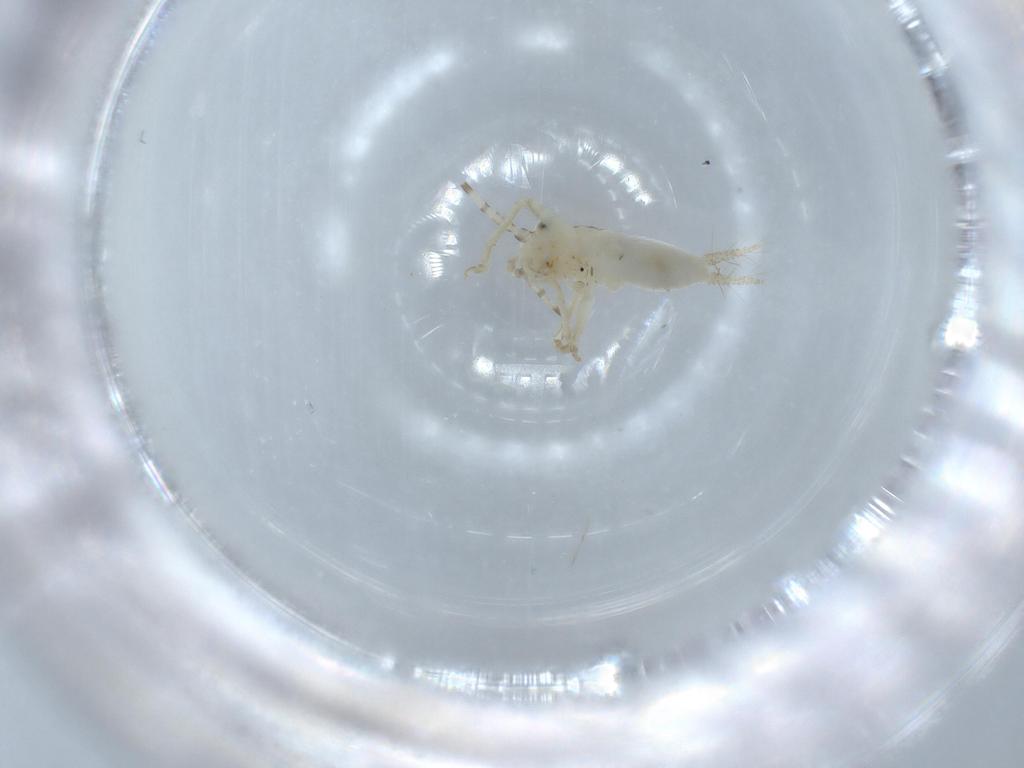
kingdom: Animalia
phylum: Arthropoda
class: Insecta
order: Orthoptera
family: Trigonidiidae
